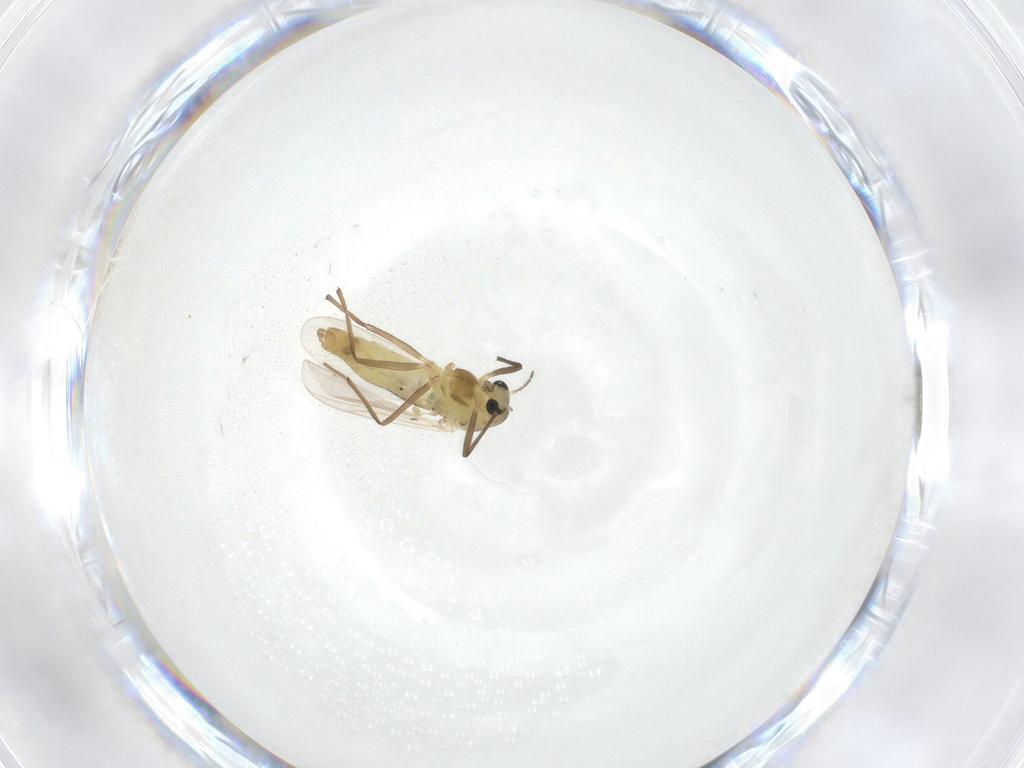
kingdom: Animalia
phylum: Arthropoda
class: Insecta
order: Diptera
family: Chironomidae
